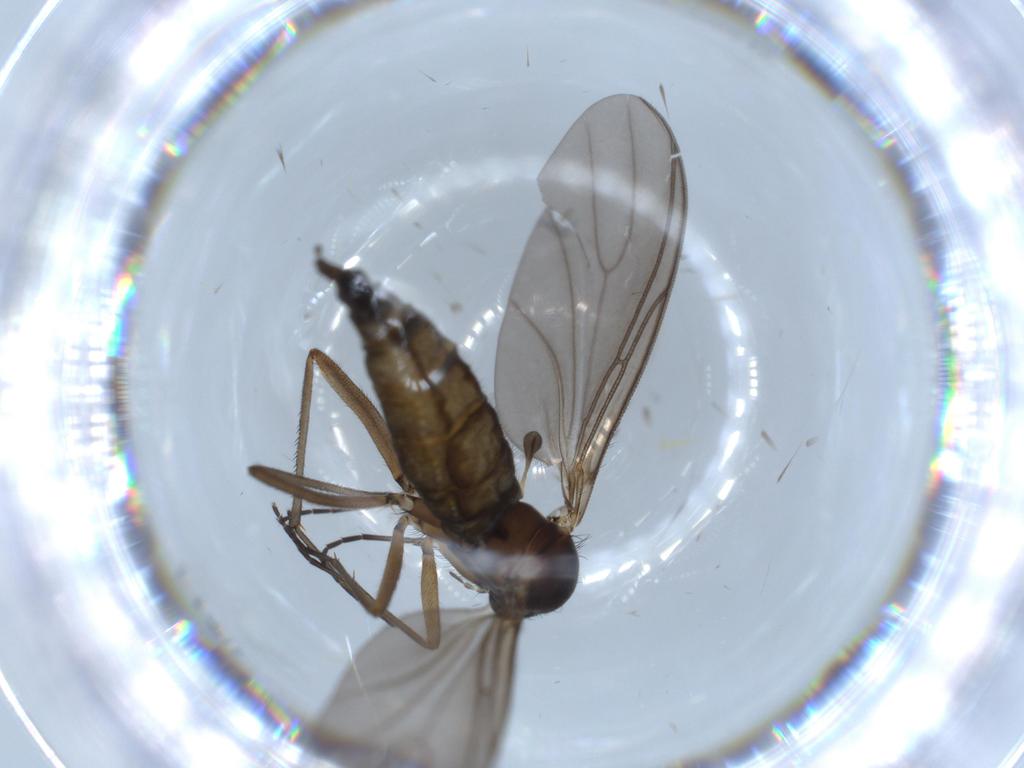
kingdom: Animalia
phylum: Arthropoda
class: Insecta
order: Diptera
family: Sciaridae
